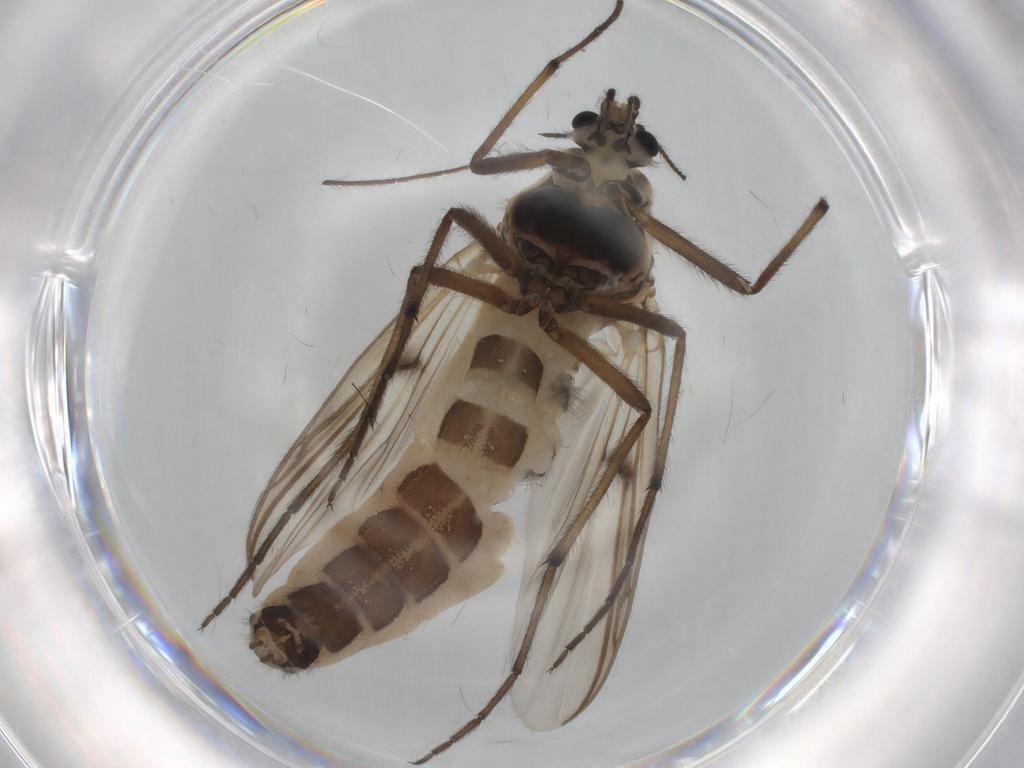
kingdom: Animalia
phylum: Arthropoda
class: Insecta
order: Diptera
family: Chironomidae
